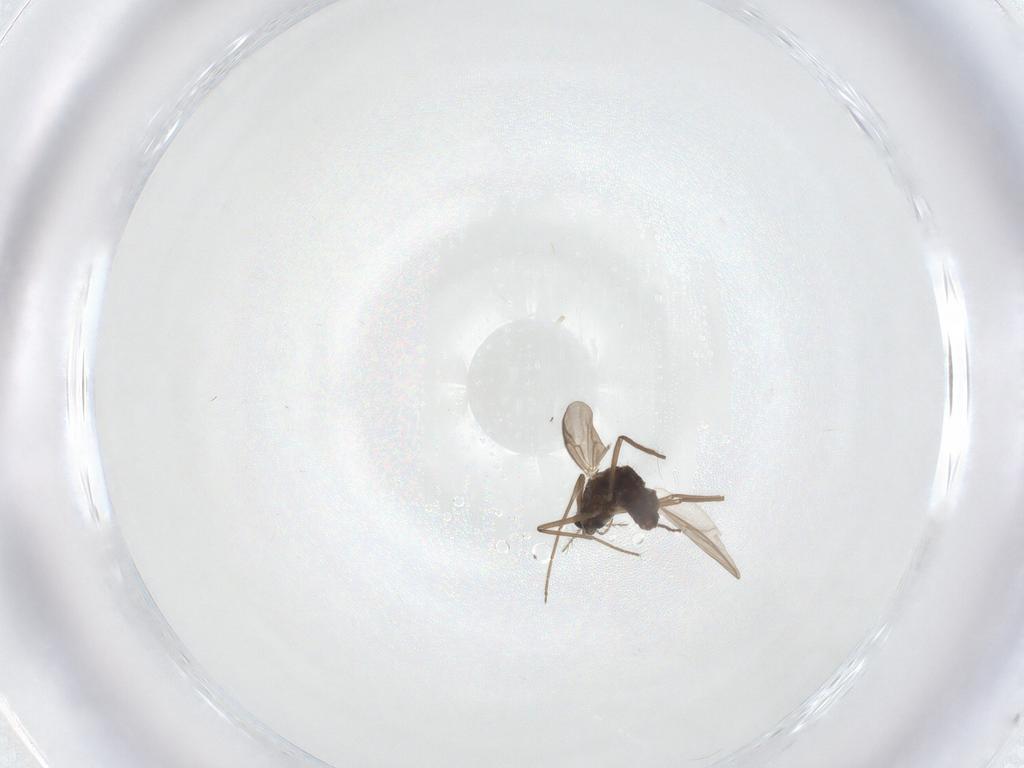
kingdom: Animalia
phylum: Arthropoda
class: Insecta
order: Diptera
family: Chironomidae
